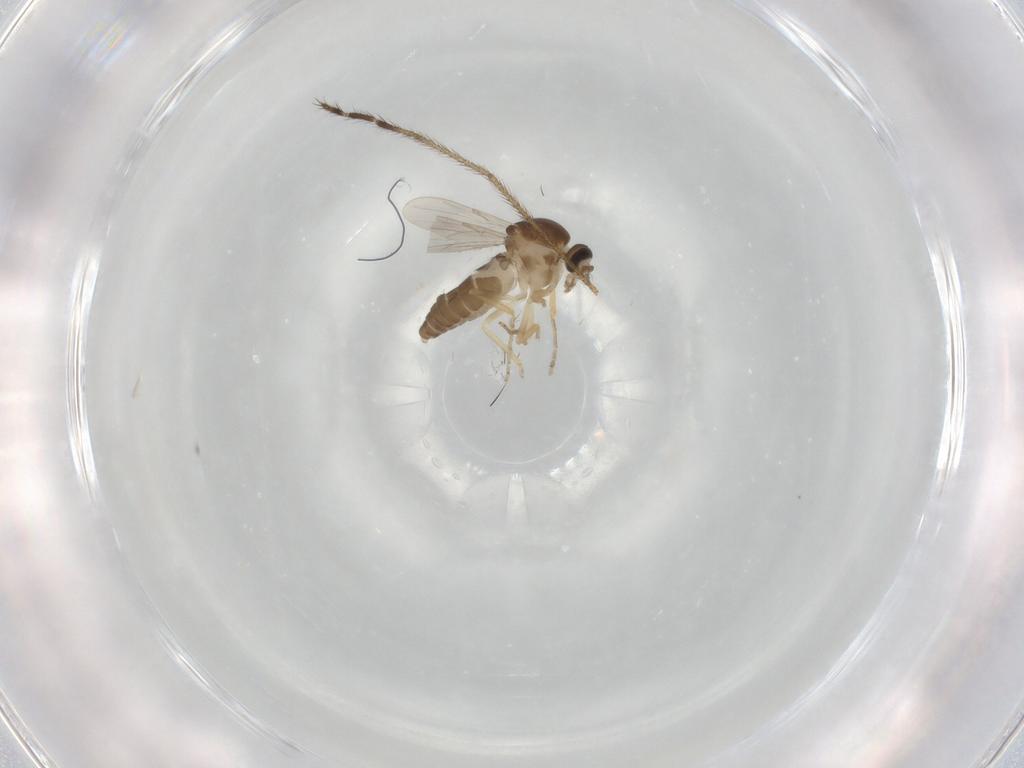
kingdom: Animalia
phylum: Arthropoda
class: Insecta
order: Diptera
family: Ceratopogonidae
